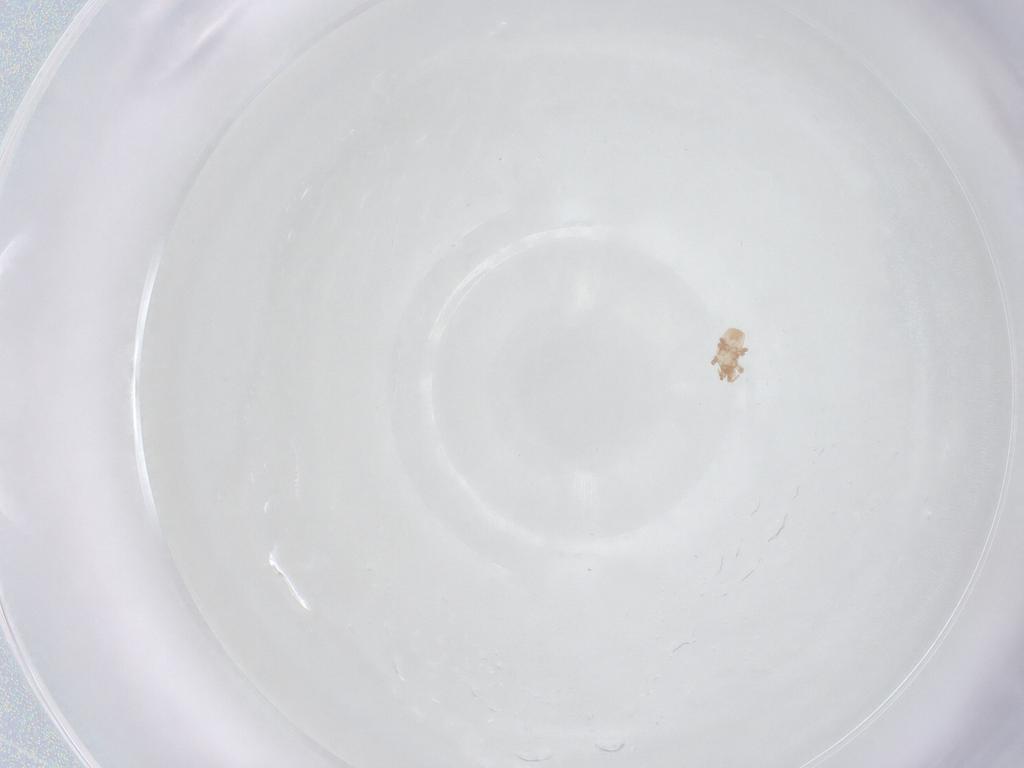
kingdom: Animalia
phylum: Arthropoda
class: Arachnida
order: Mesostigmata
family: Digamasellidae
